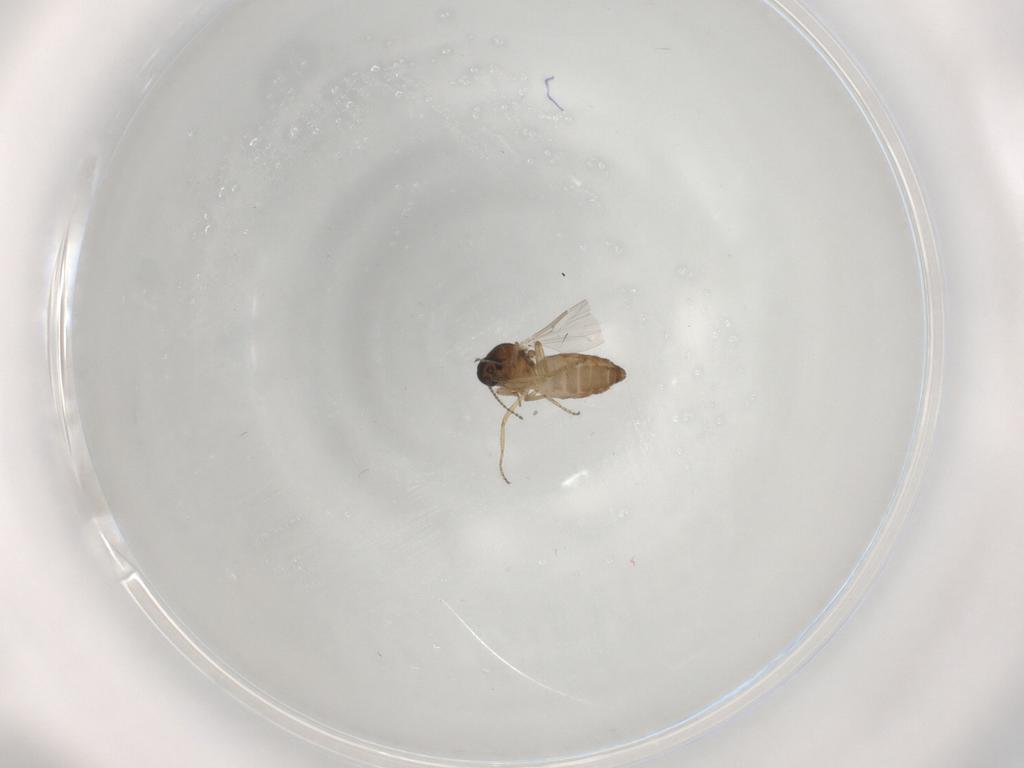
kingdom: Animalia
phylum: Arthropoda
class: Insecta
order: Diptera
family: Ceratopogonidae
